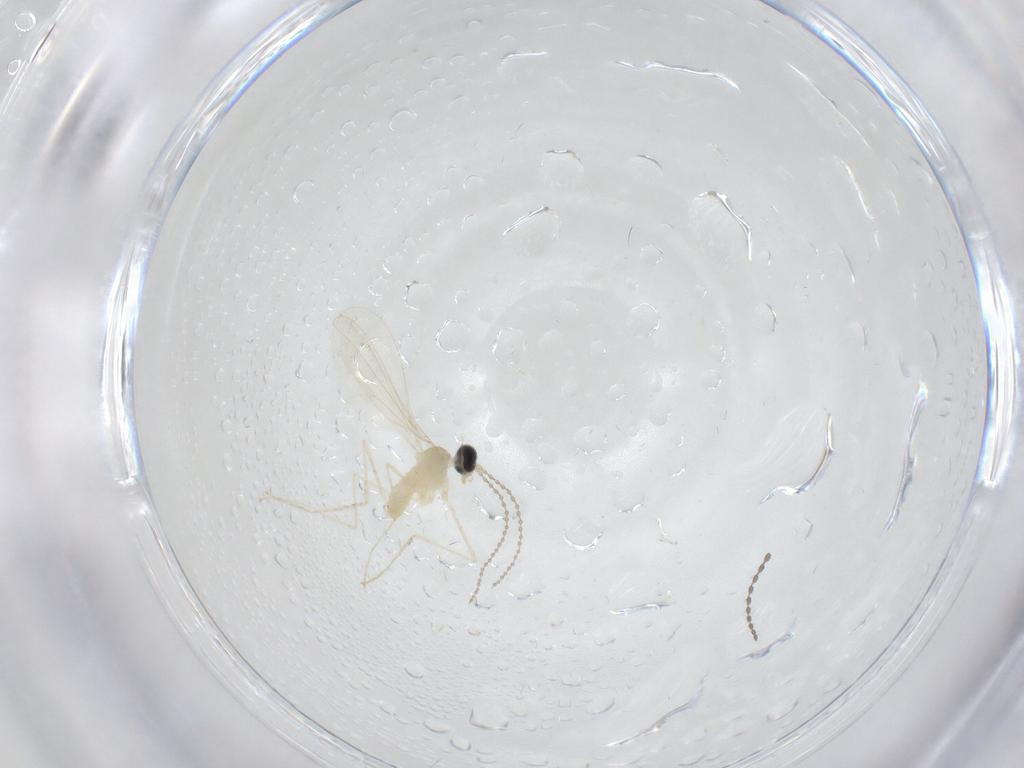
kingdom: Animalia
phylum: Arthropoda
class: Insecta
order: Diptera
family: Cecidomyiidae
